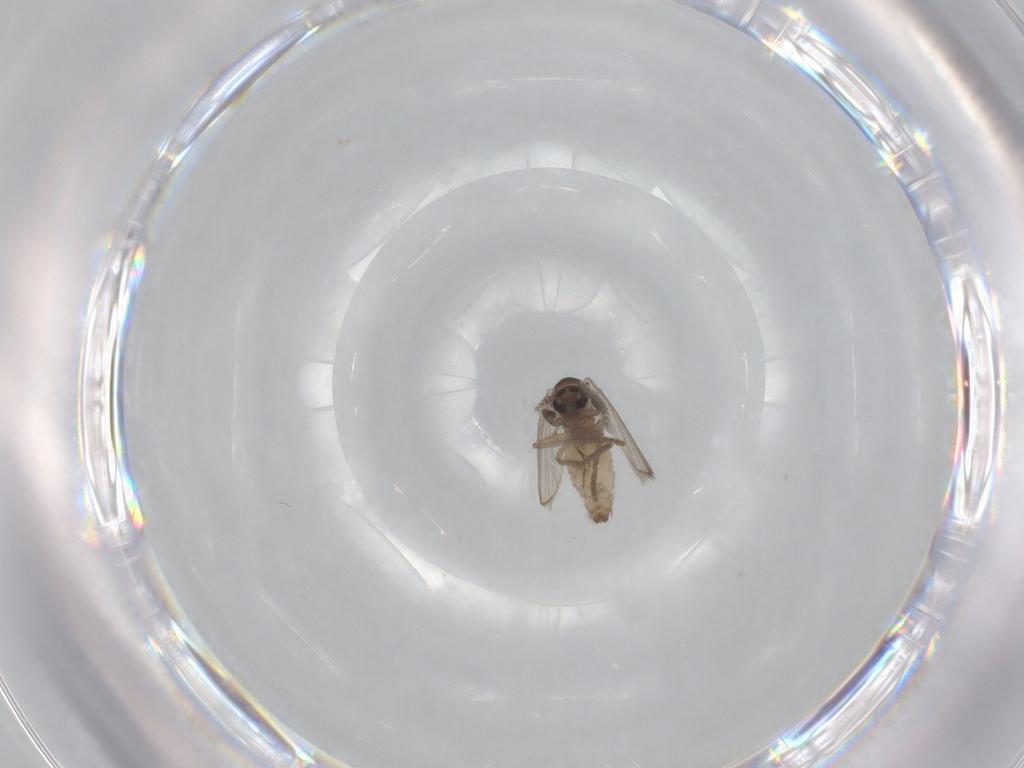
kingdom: Animalia
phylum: Arthropoda
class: Insecta
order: Diptera
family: Psychodidae
